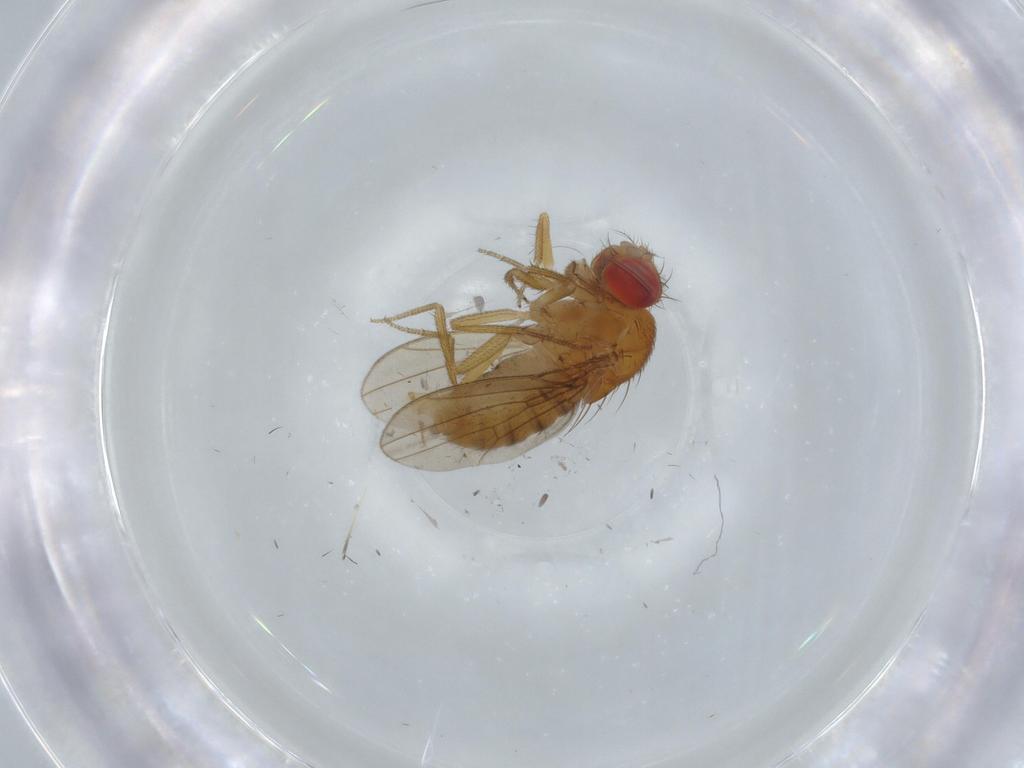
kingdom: Animalia
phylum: Arthropoda
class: Insecta
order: Diptera
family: Drosophilidae
